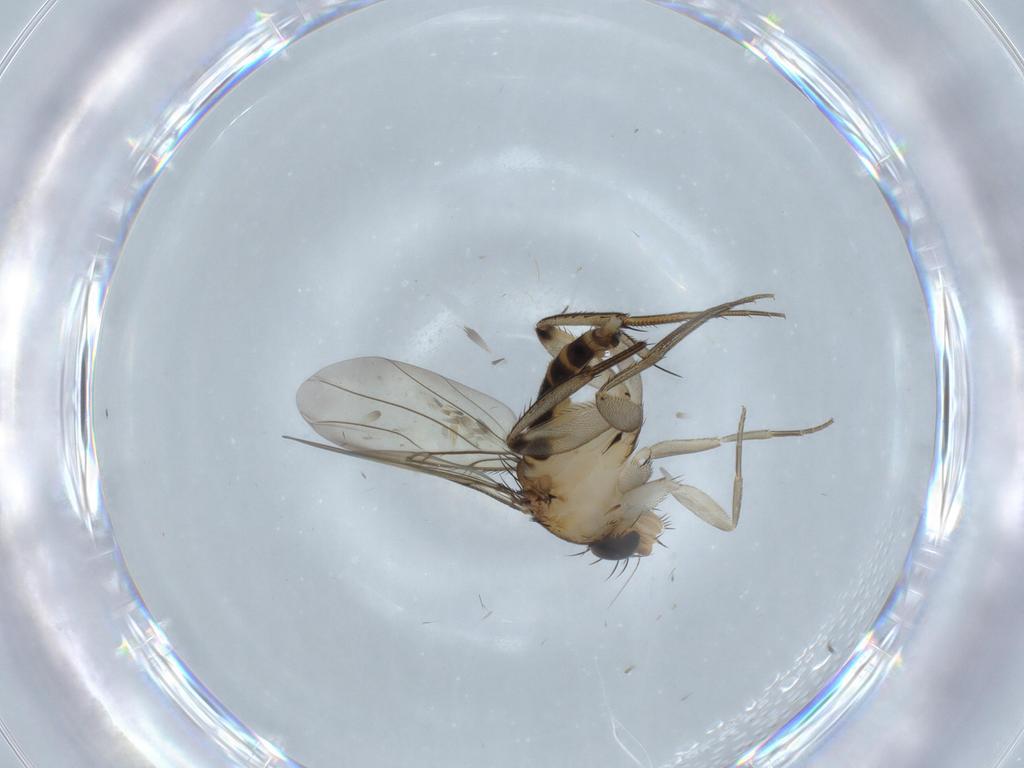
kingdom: Animalia
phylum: Arthropoda
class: Insecta
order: Diptera
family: Phoridae
